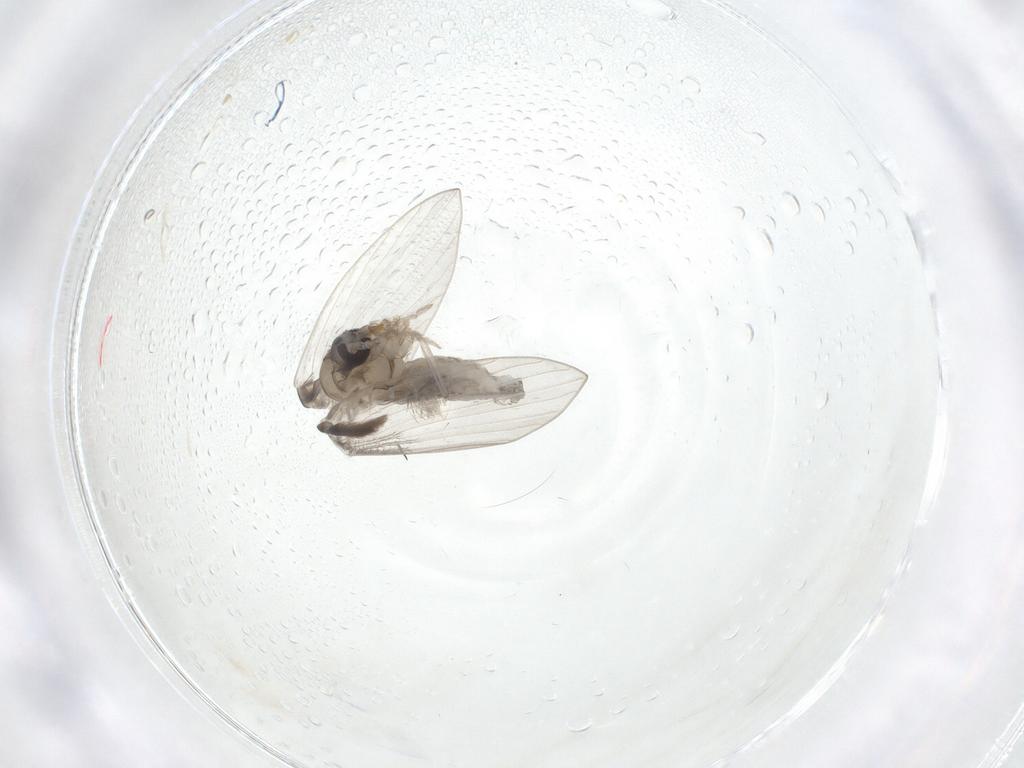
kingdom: Animalia
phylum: Arthropoda
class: Insecta
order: Diptera
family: Psychodidae
